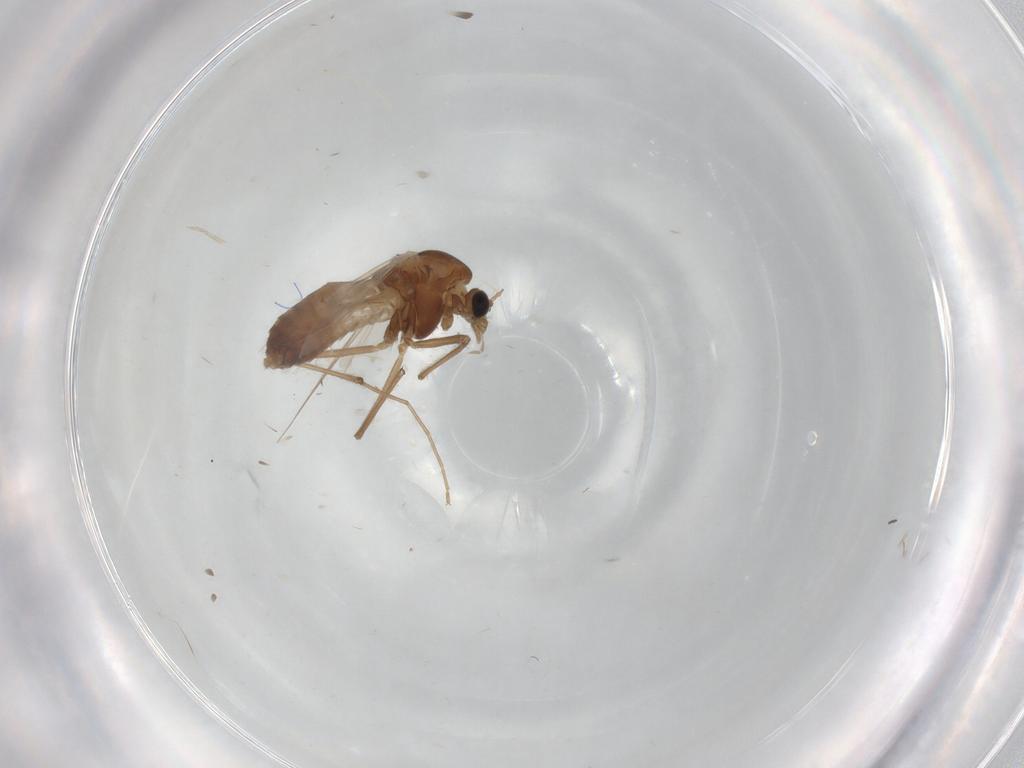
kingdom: Animalia
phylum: Arthropoda
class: Insecta
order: Diptera
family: Chironomidae
